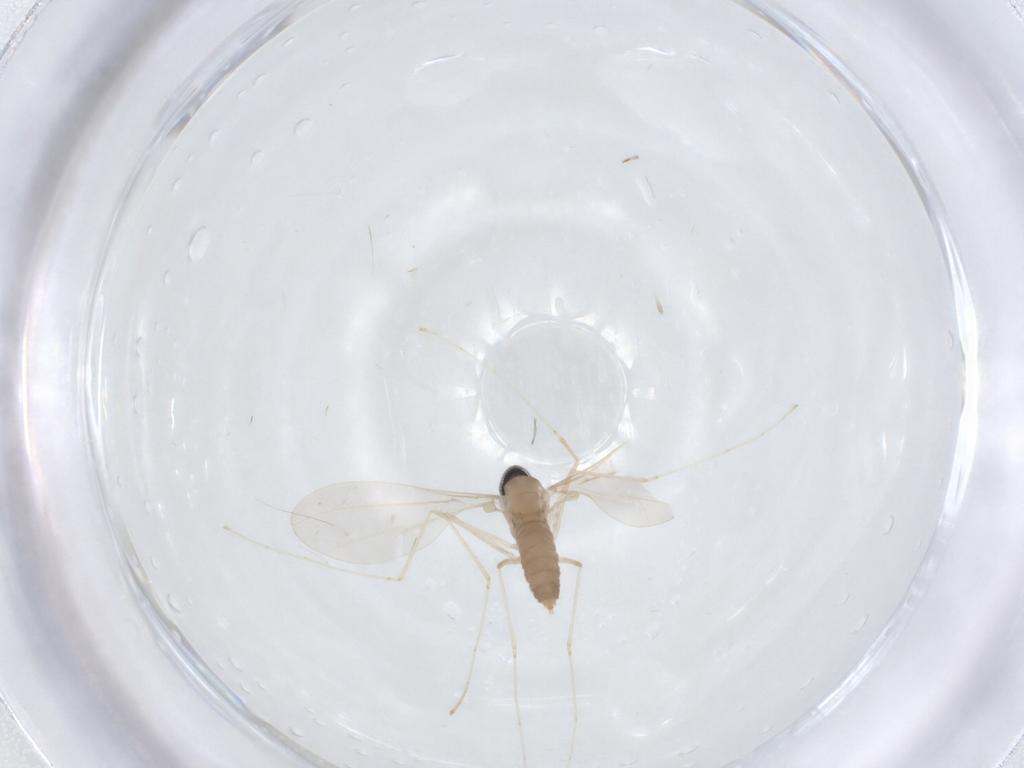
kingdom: Animalia
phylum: Arthropoda
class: Insecta
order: Diptera
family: Cecidomyiidae
